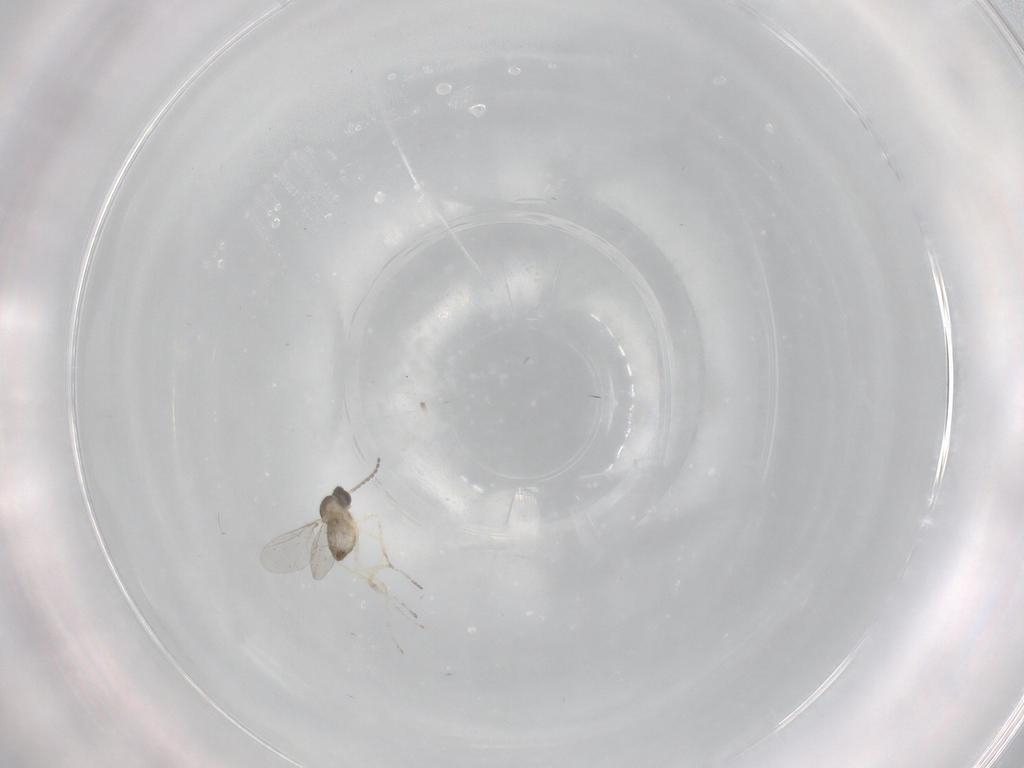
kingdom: Animalia
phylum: Arthropoda
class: Insecta
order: Diptera
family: Cecidomyiidae
